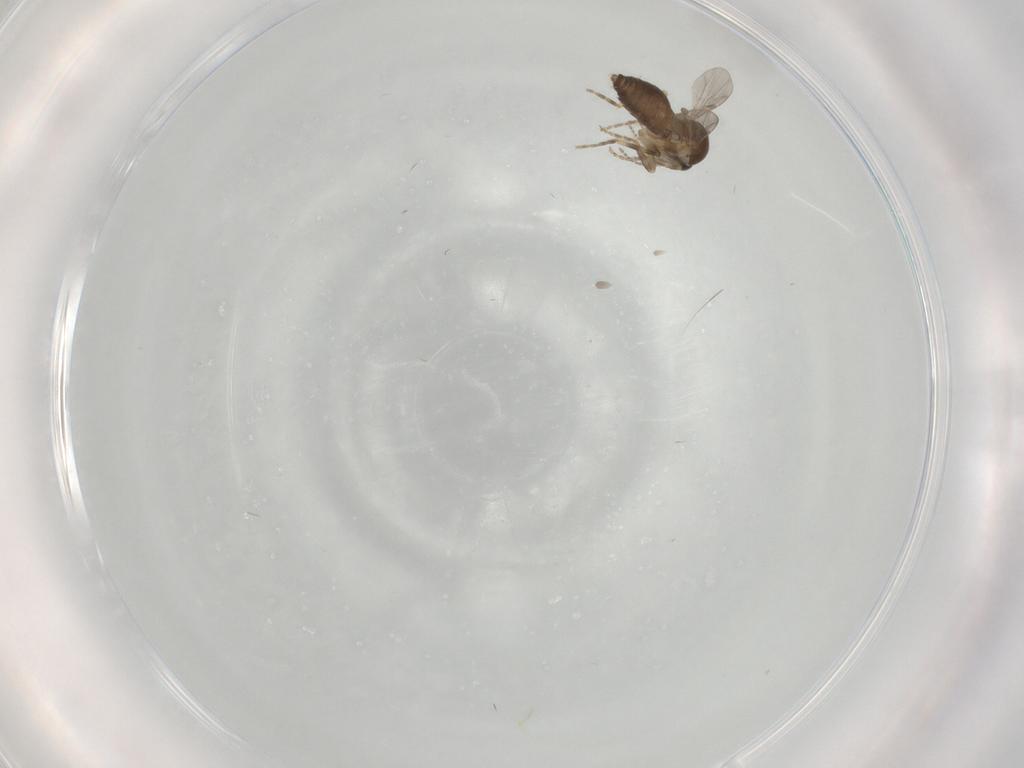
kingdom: Animalia
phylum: Arthropoda
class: Insecta
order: Diptera
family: Ceratopogonidae
